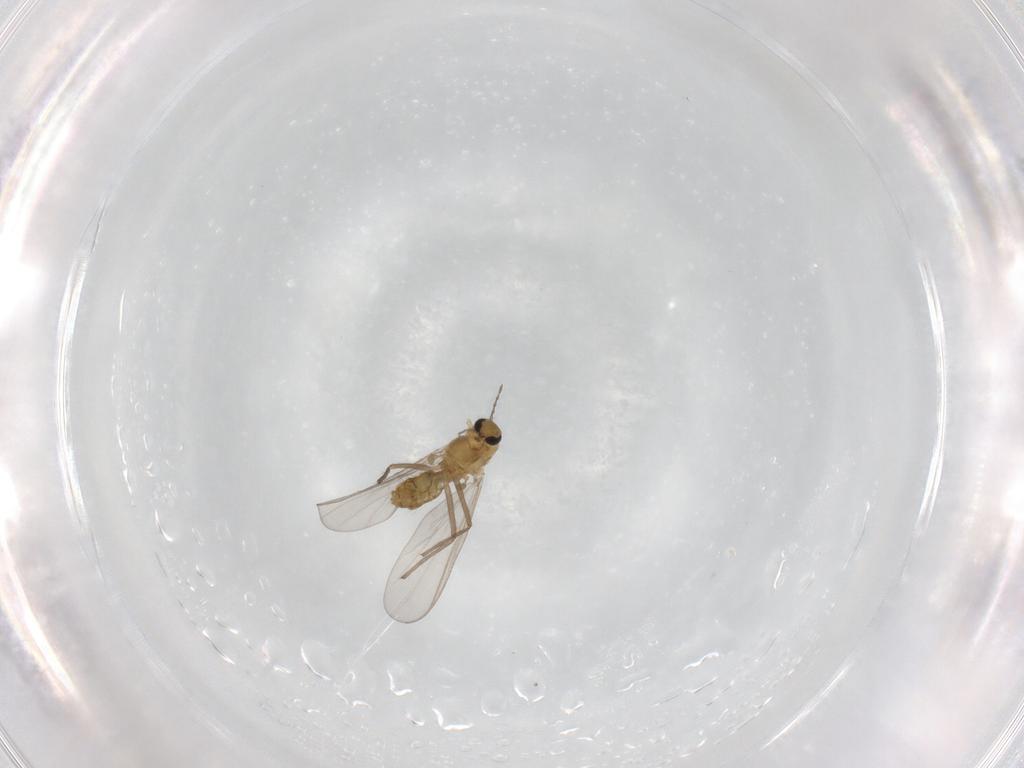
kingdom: Animalia
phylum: Arthropoda
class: Insecta
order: Diptera
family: Chironomidae
